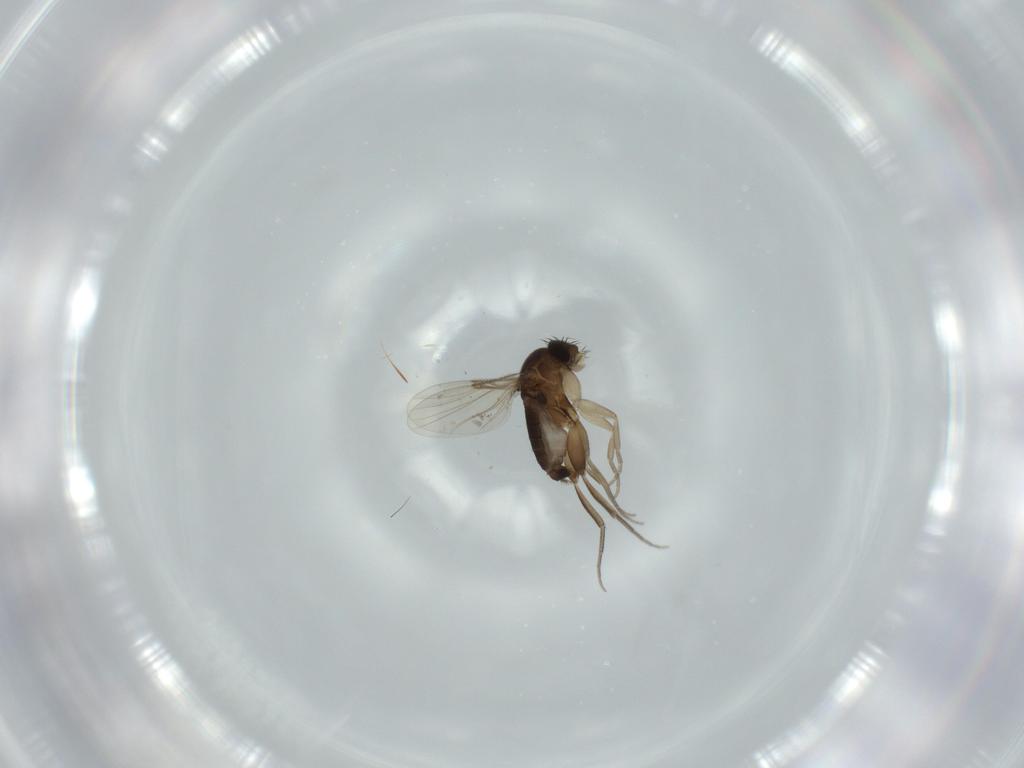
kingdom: Animalia
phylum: Arthropoda
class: Insecta
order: Diptera
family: Phoridae
